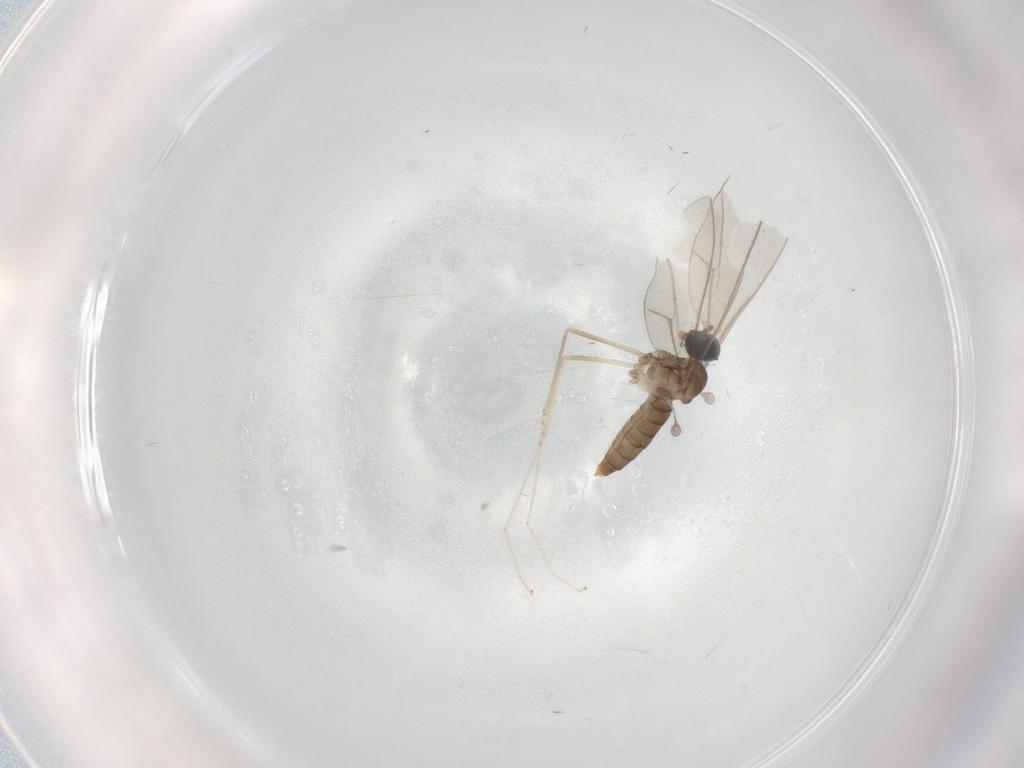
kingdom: Animalia
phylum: Arthropoda
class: Insecta
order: Diptera
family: Cecidomyiidae
